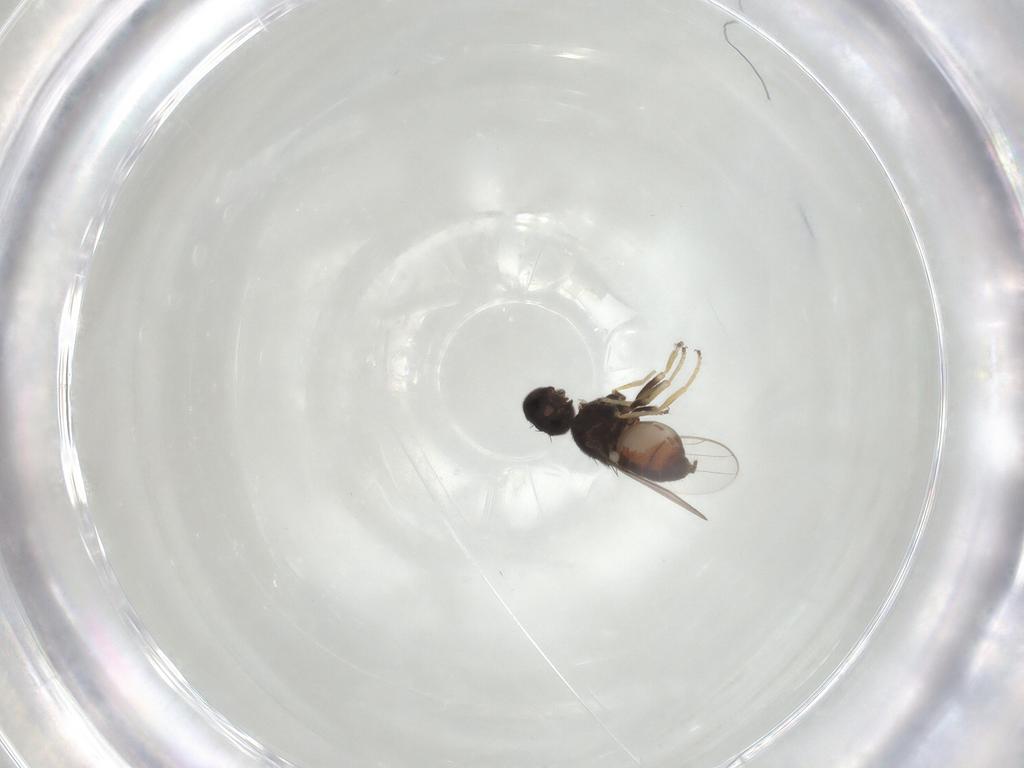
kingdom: Animalia
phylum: Arthropoda
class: Insecta
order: Diptera
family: Chloropidae
